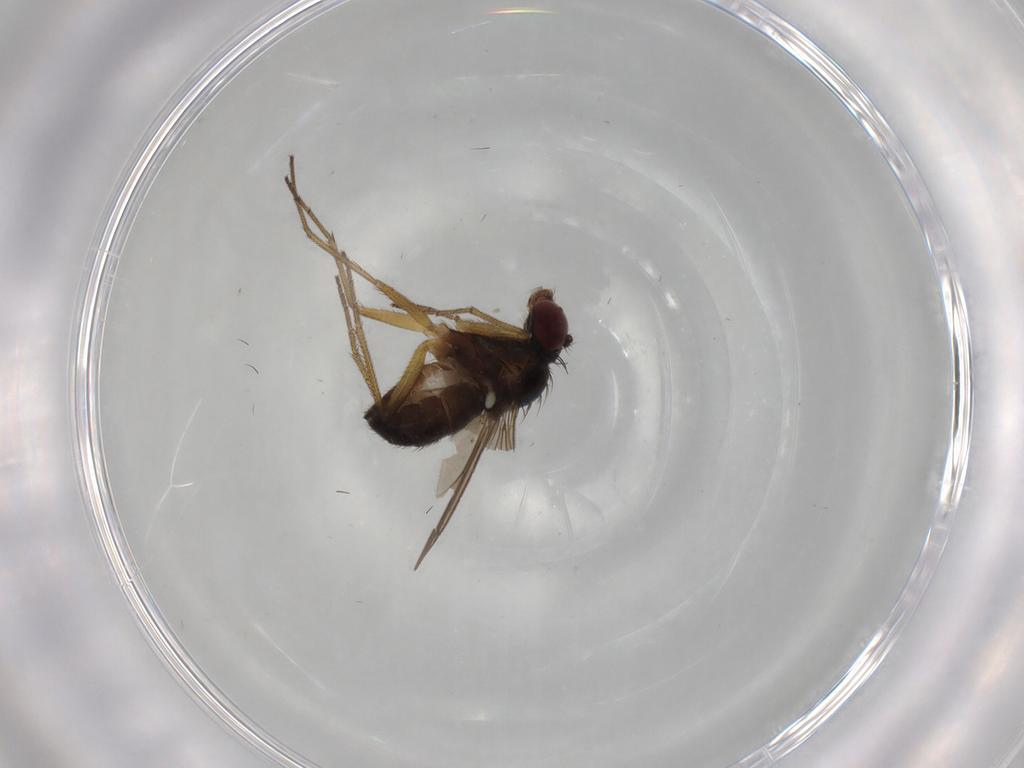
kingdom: Animalia
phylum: Arthropoda
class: Insecta
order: Diptera
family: Dolichopodidae
